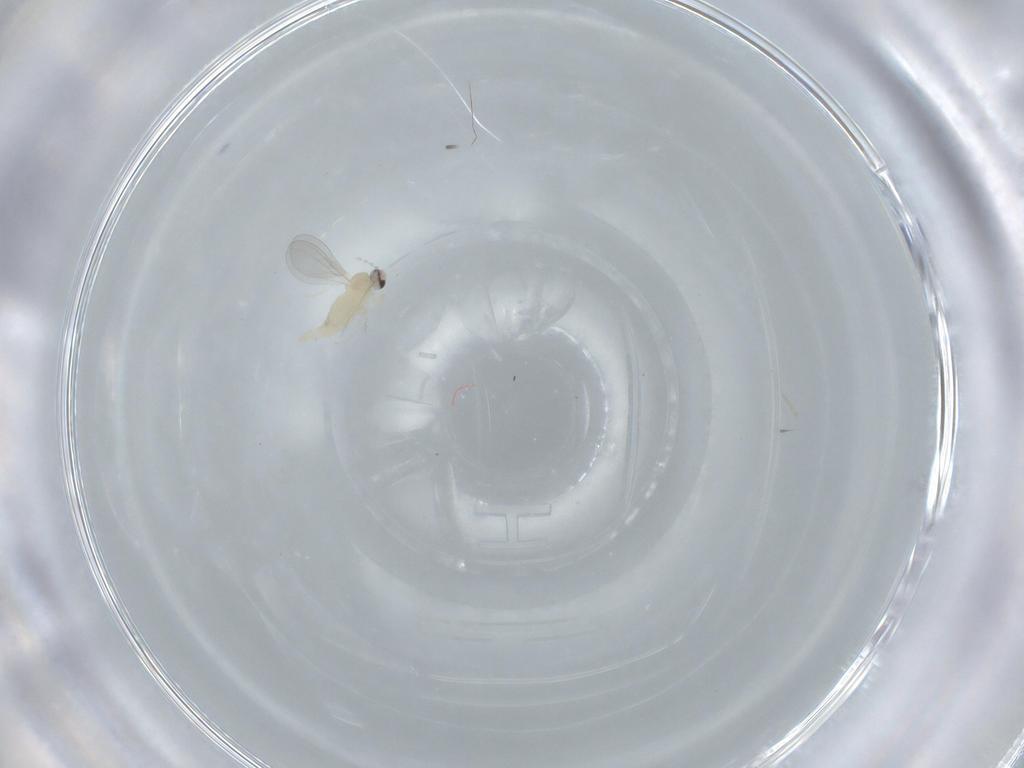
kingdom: Animalia
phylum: Arthropoda
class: Insecta
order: Diptera
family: Cecidomyiidae
